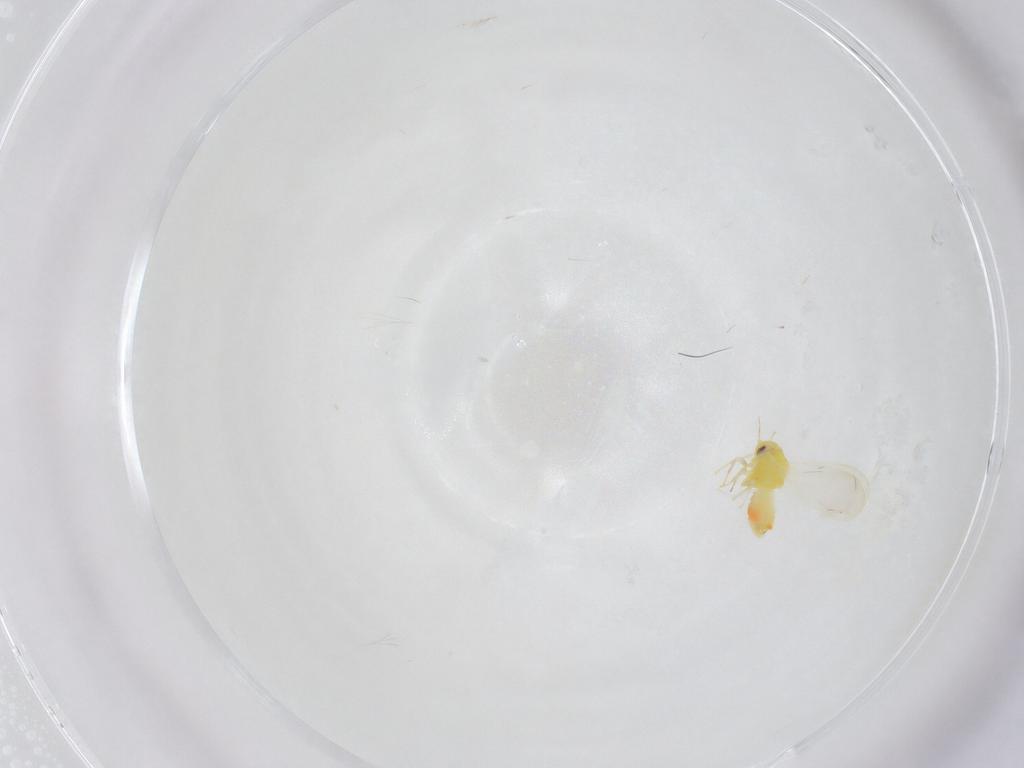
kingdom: Animalia
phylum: Arthropoda
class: Insecta
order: Hemiptera
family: Aleyrodidae
